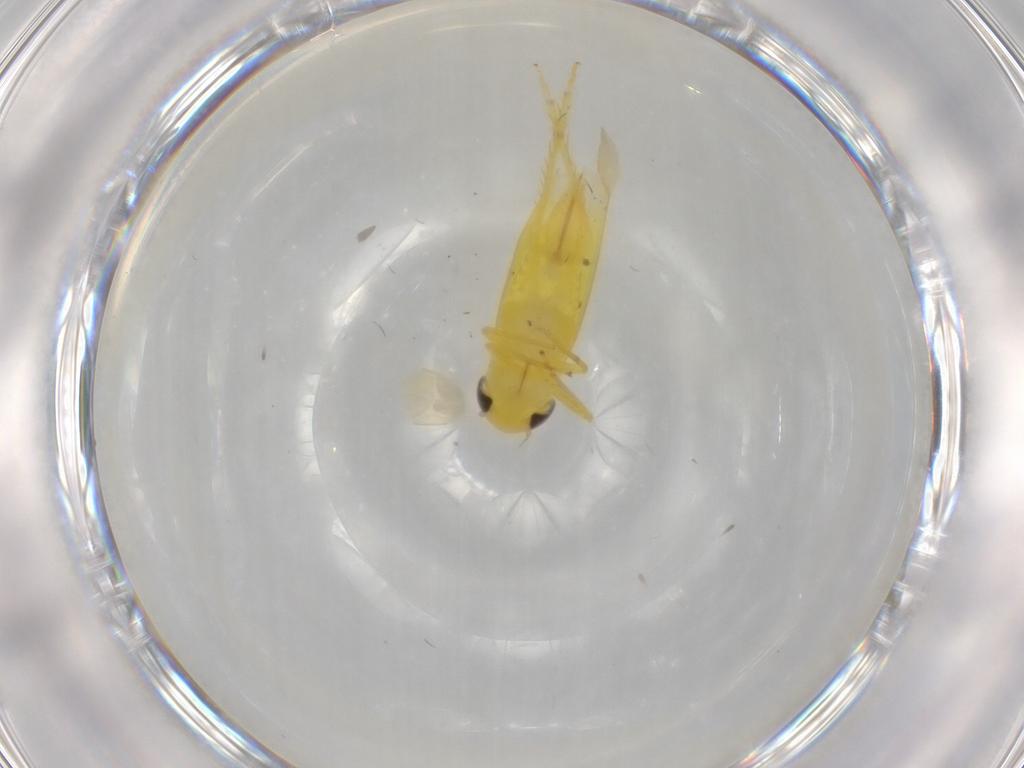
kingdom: Animalia
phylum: Arthropoda
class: Insecta
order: Hemiptera
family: Cicadellidae
